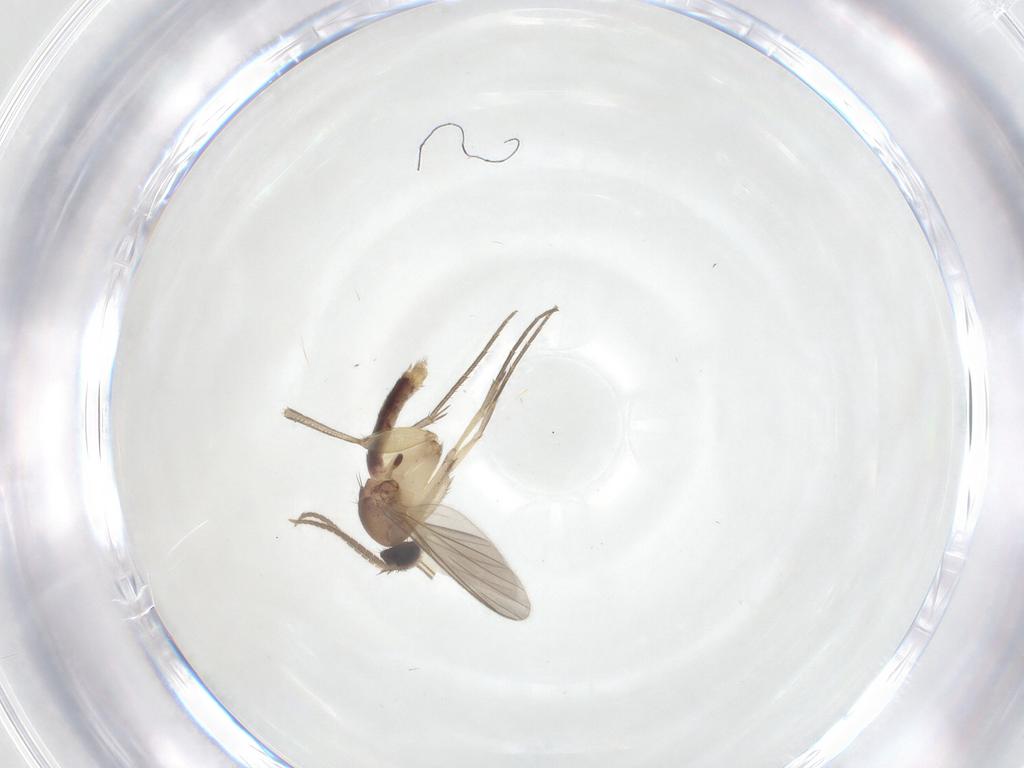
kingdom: Animalia
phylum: Arthropoda
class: Insecta
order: Diptera
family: Mycetophilidae
